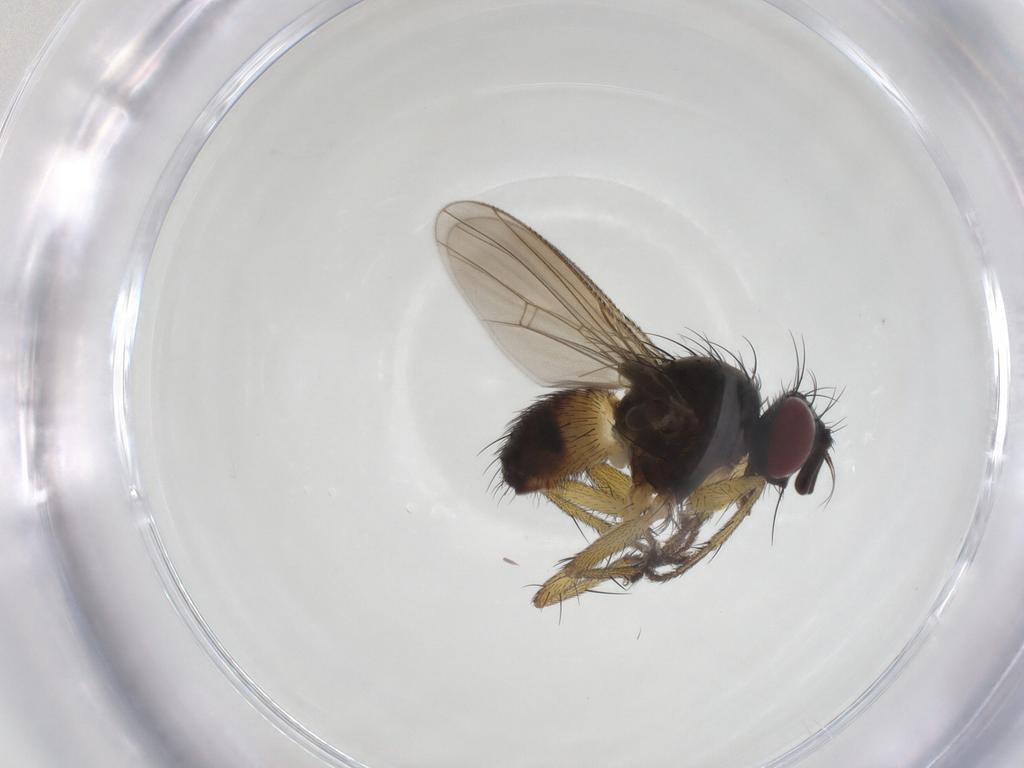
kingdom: Animalia
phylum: Arthropoda
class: Insecta
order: Diptera
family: Muscidae
